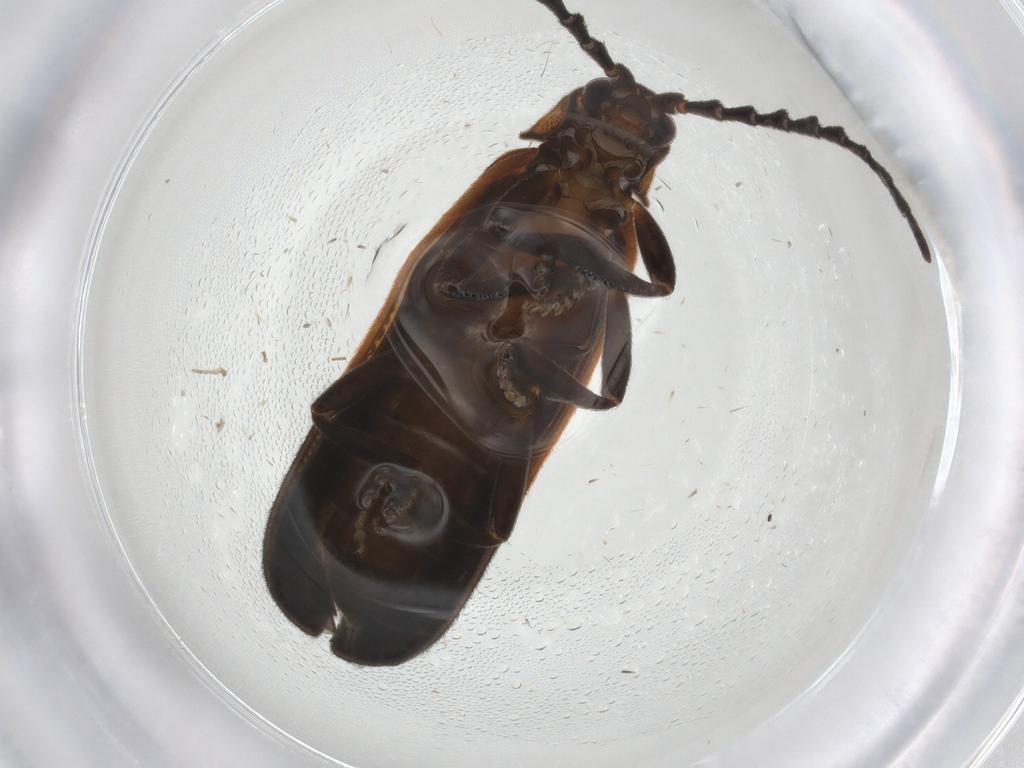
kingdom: Animalia
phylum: Arthropoda
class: Insecta
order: Coleoptera
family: Lycidae
